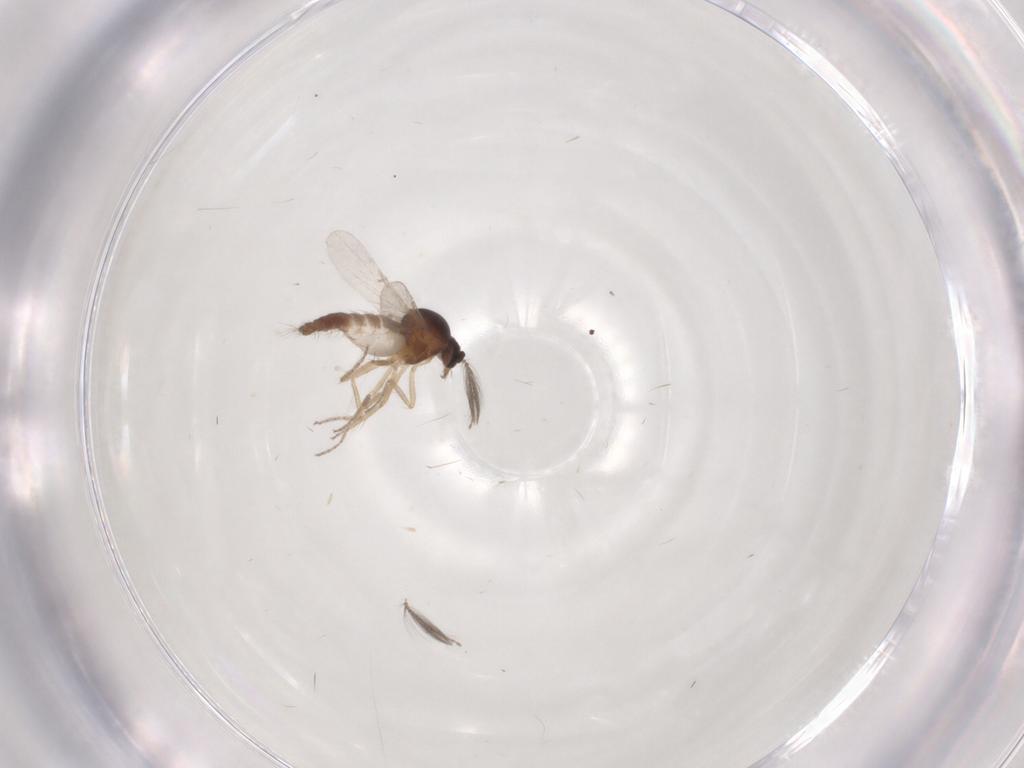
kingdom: Animalia
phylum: Arthropoda
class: Insecta
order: Diptera
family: Ceratopogonidae
